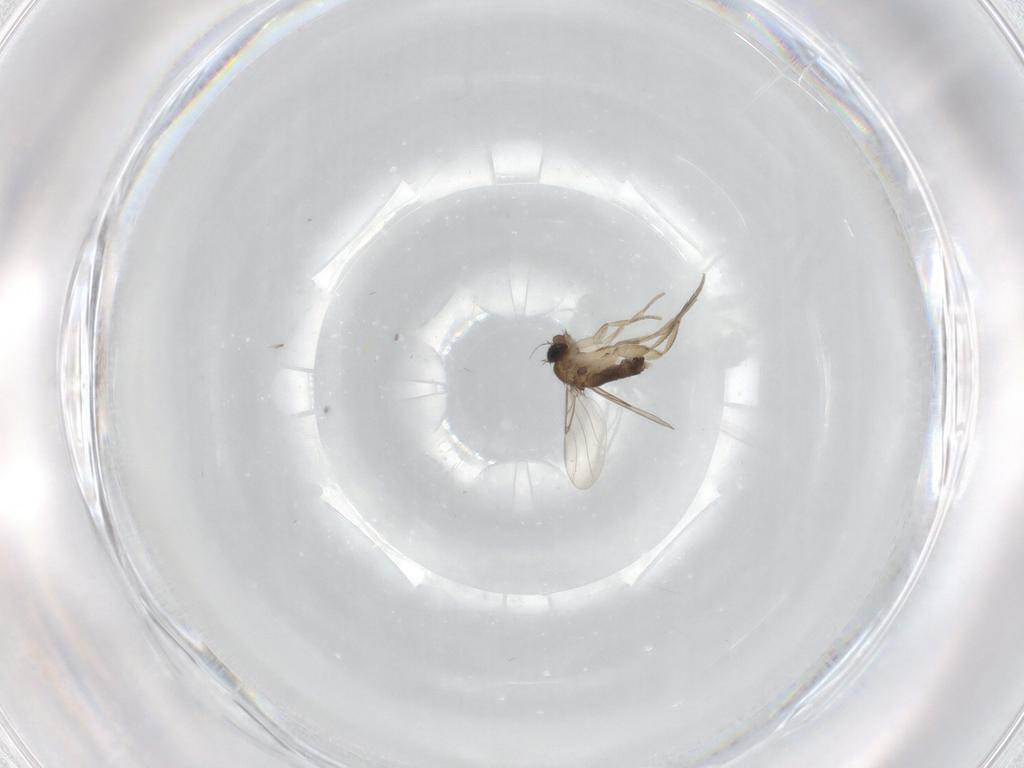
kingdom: Animalia
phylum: Arthropoda
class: Insecta
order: Diptera
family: Phoridae
